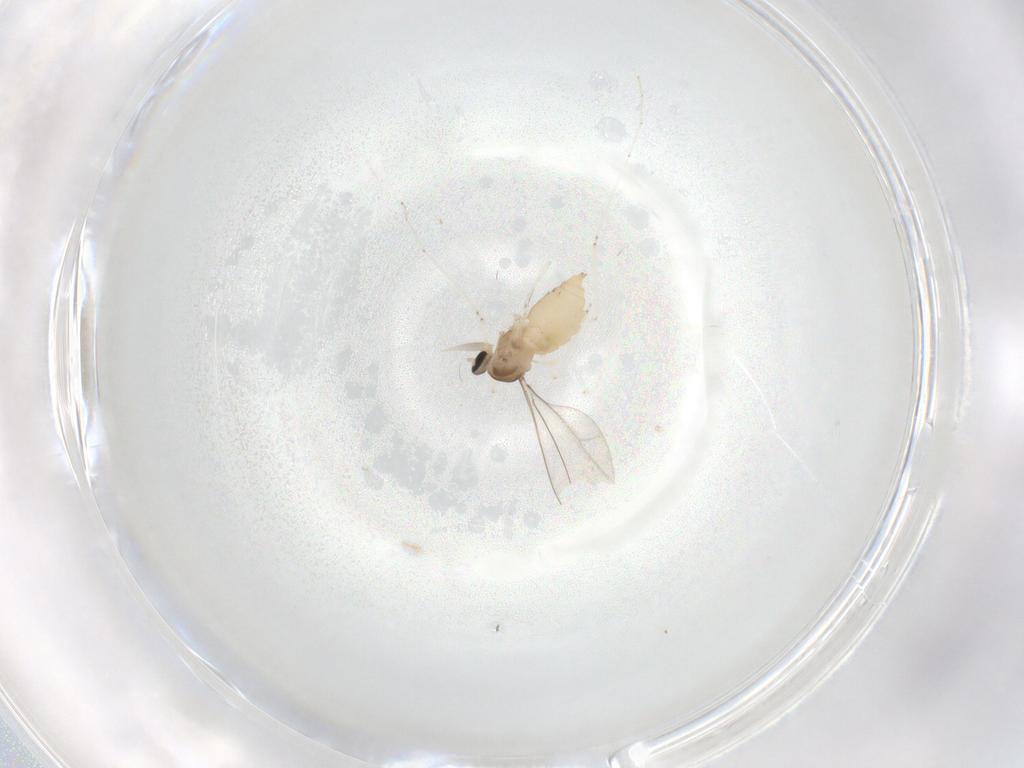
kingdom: Animalia
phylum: Arthropoda
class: Insecta
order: Diptera
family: Cecidomyiidae
